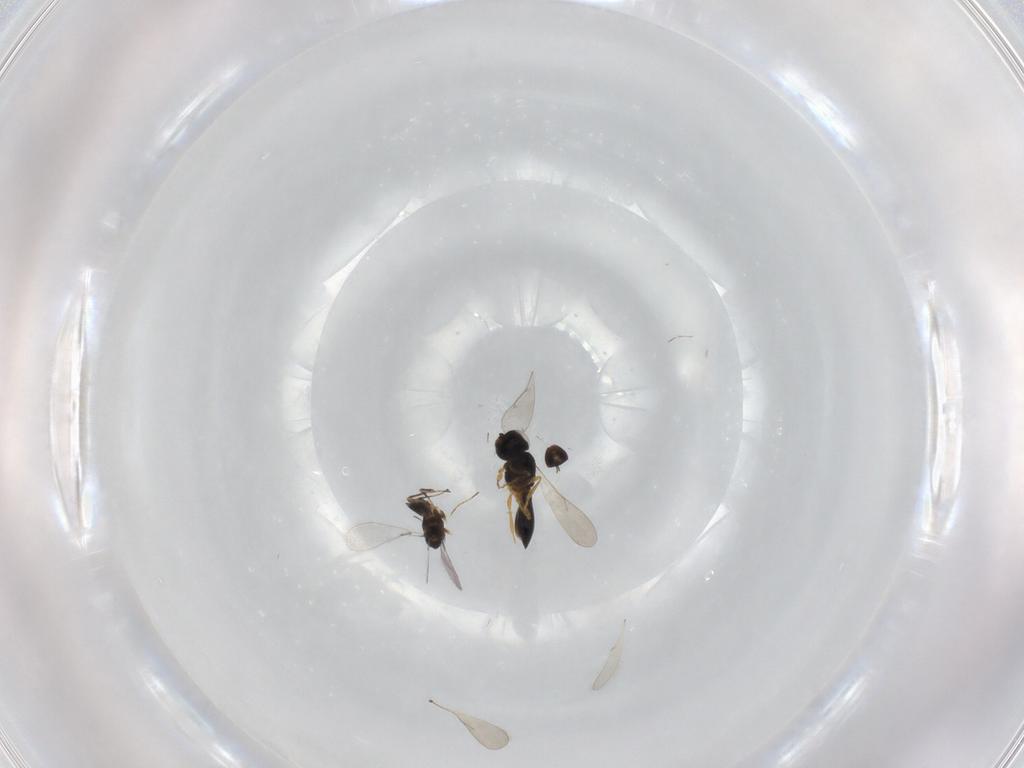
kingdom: Animalia
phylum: Arthropoda
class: Insecta
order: Hymenoptera
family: Scelionidae
